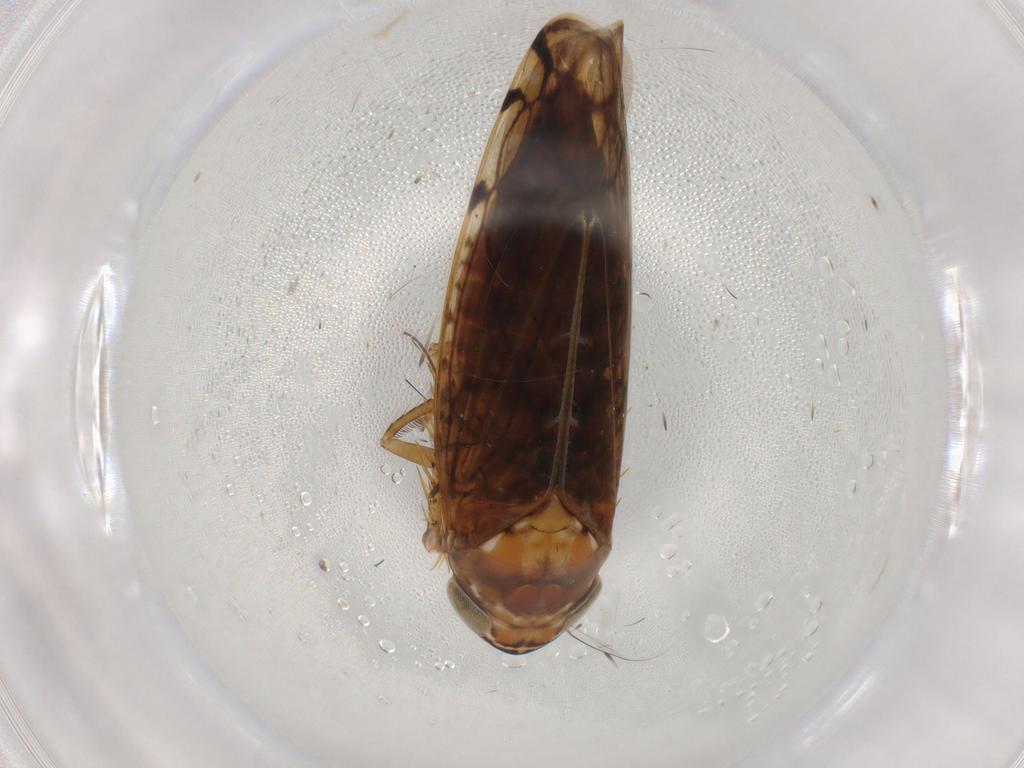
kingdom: Animalia
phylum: Arthropoda
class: Insecta
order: Hemiptera
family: Cicadellidae
